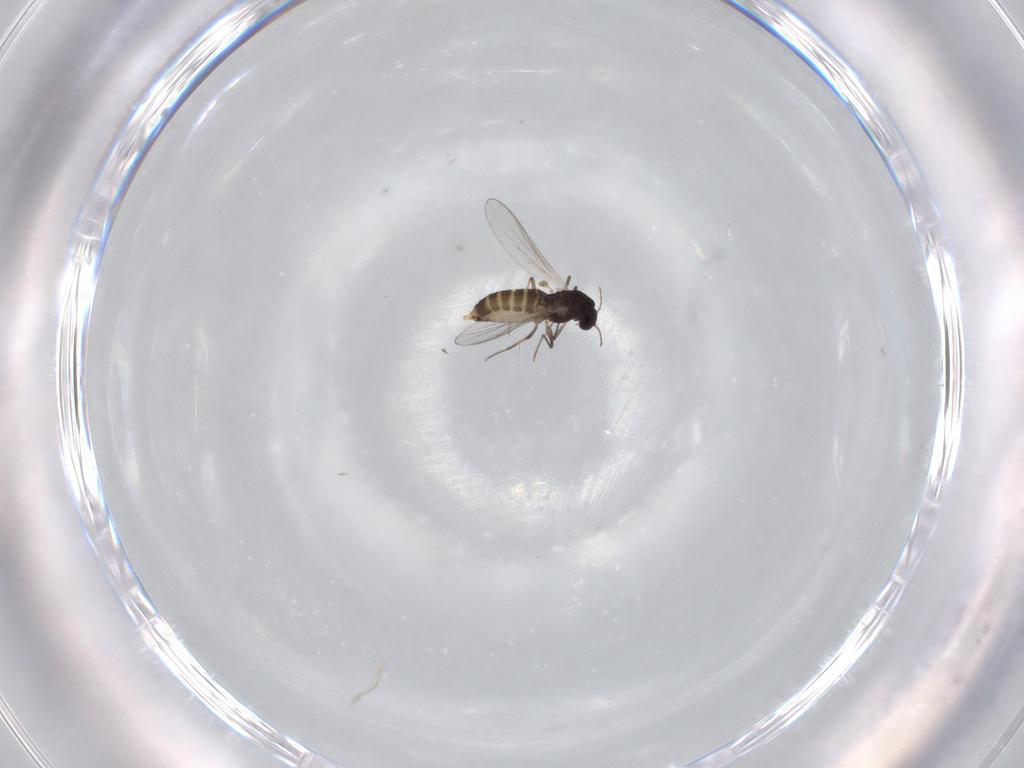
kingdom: Animalia
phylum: Arthropoda
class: Insecta
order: Diptera
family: Chironomidae
